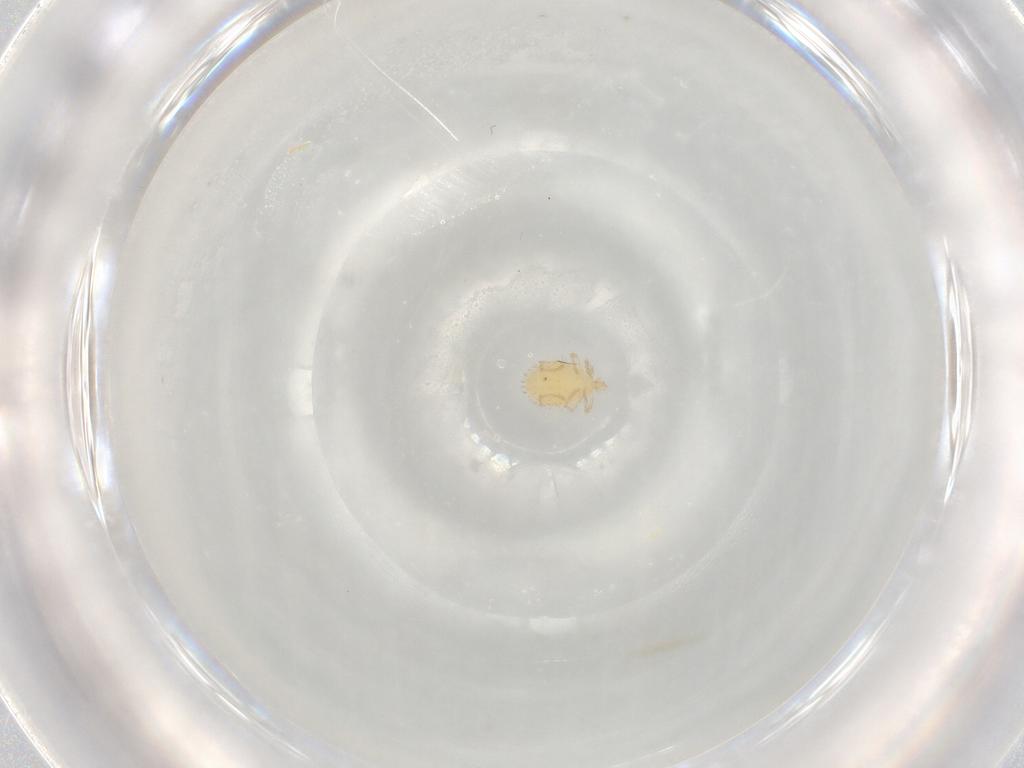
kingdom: Animalia
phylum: Arthropoda
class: Arachnida
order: Trombidiformes
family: Erythraeidae
